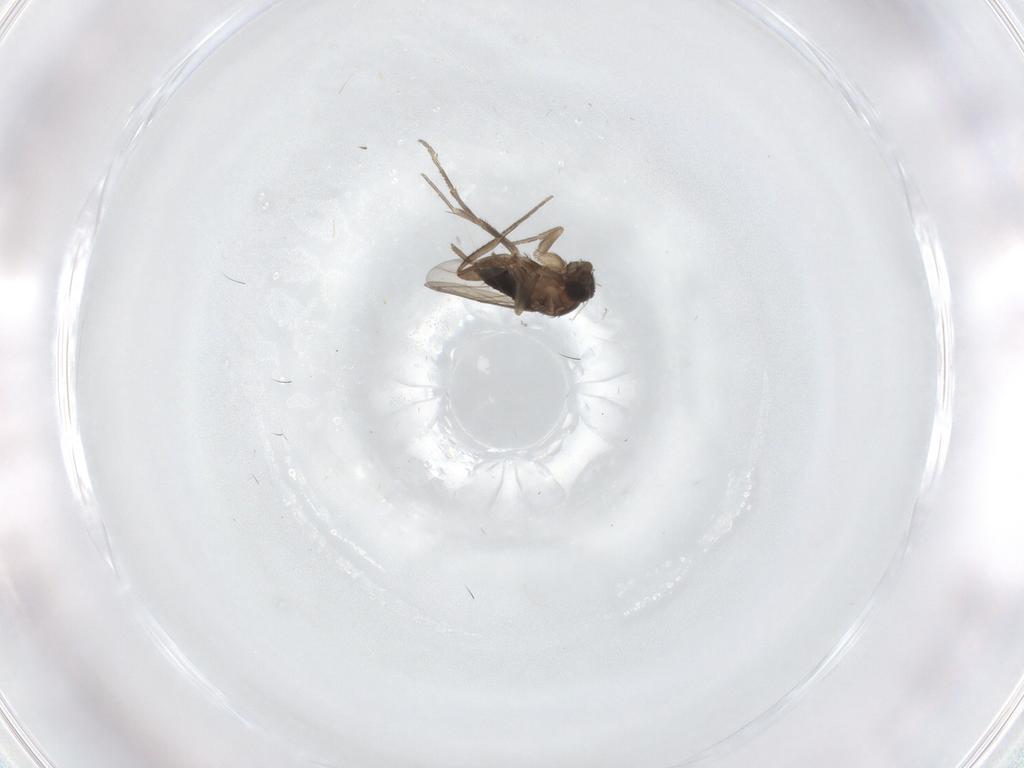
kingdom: Animalia
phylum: Arthropoda
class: Insecta
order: Diptera
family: Phoridae
